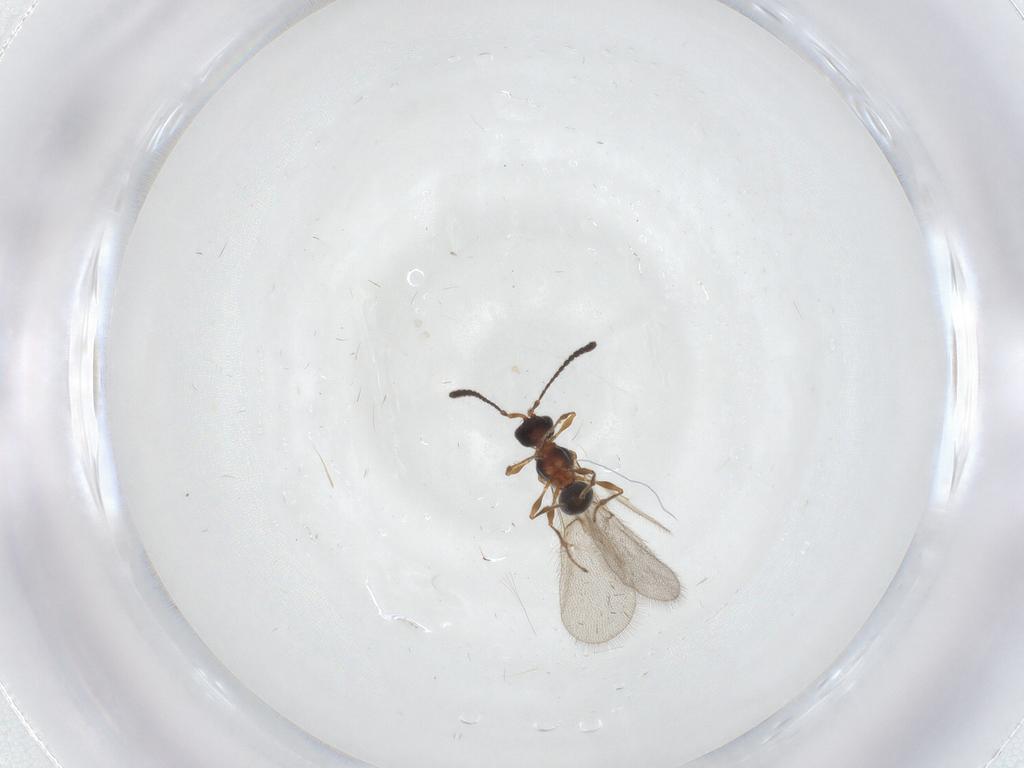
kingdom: Animalia
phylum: Arthropoda
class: Insecta
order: Hymenoptera
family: Diapriidae
